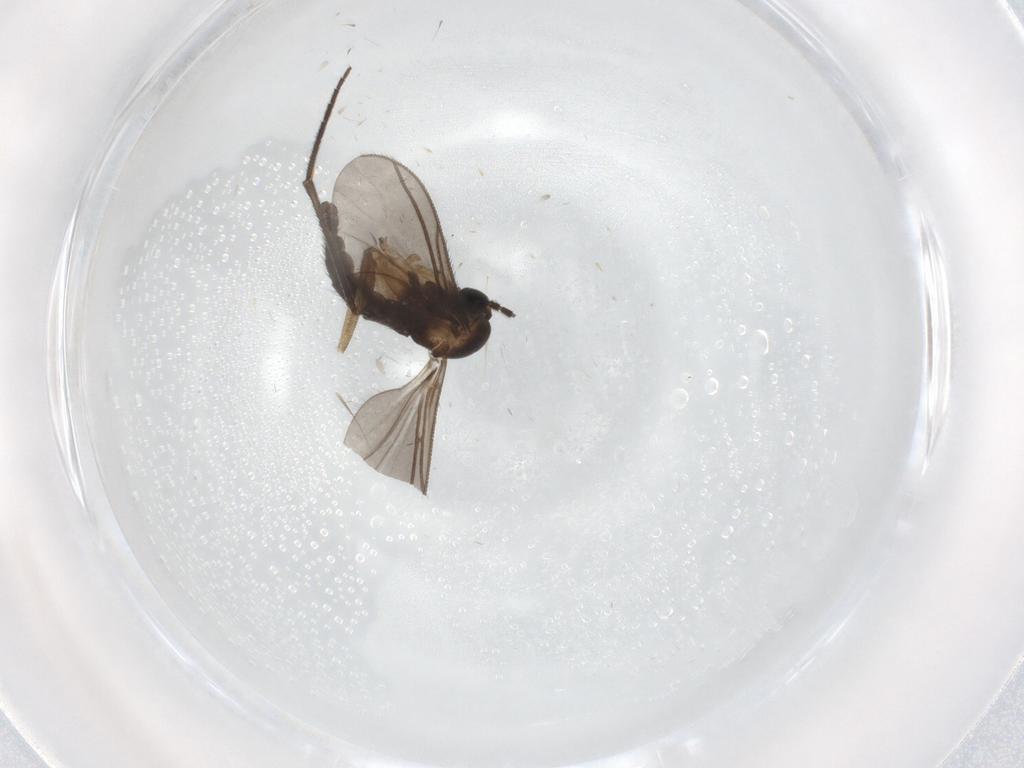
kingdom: Animalia
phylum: Arthropoda
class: Insecta
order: Diptera
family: Sciaridae
